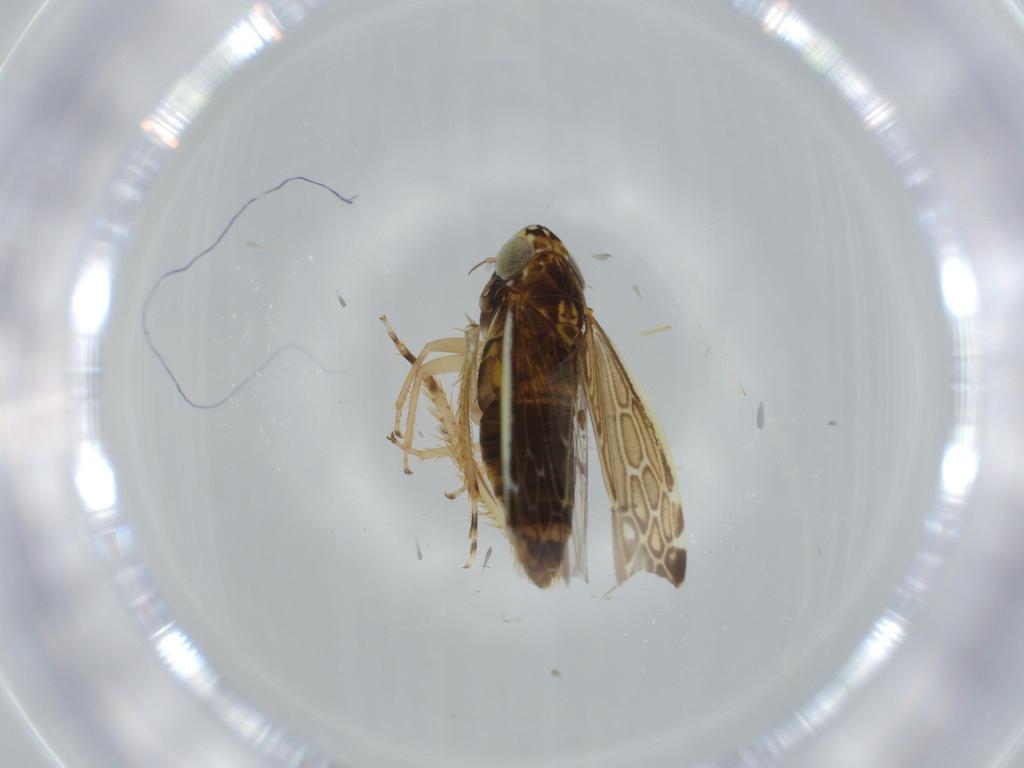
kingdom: Animalia
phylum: Arthropoda
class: Insecta
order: Hemiptera
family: Cicadellidae
